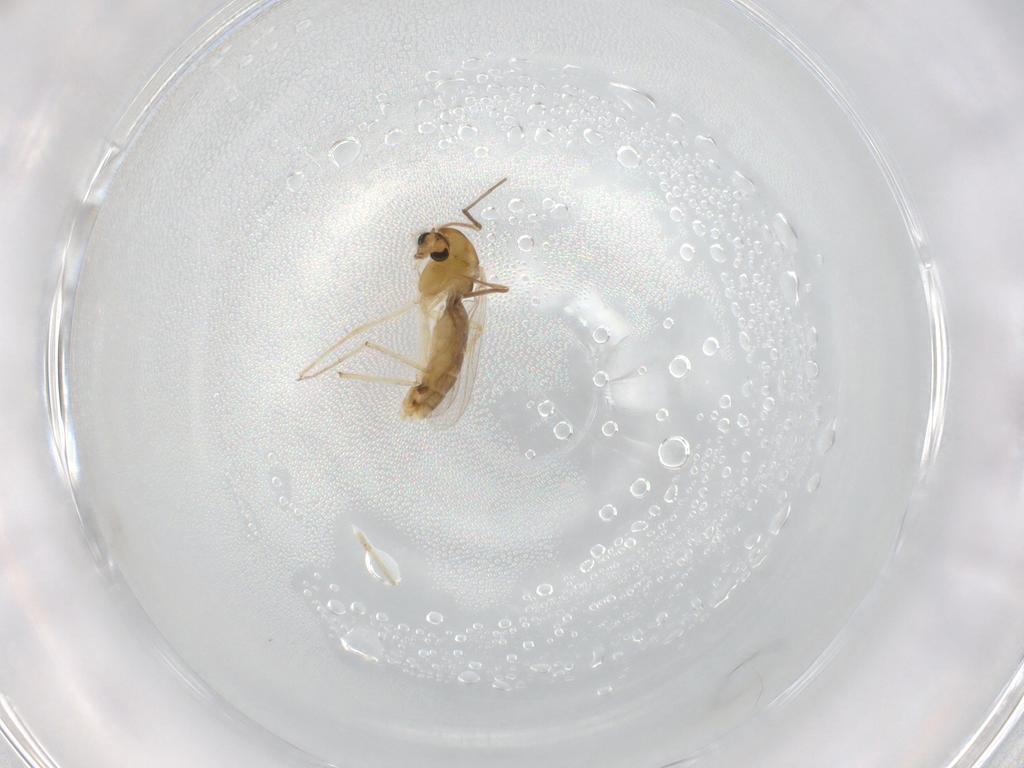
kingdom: Animalia
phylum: Arthropoda
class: Insecta
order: Diptera
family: Chironomidae
